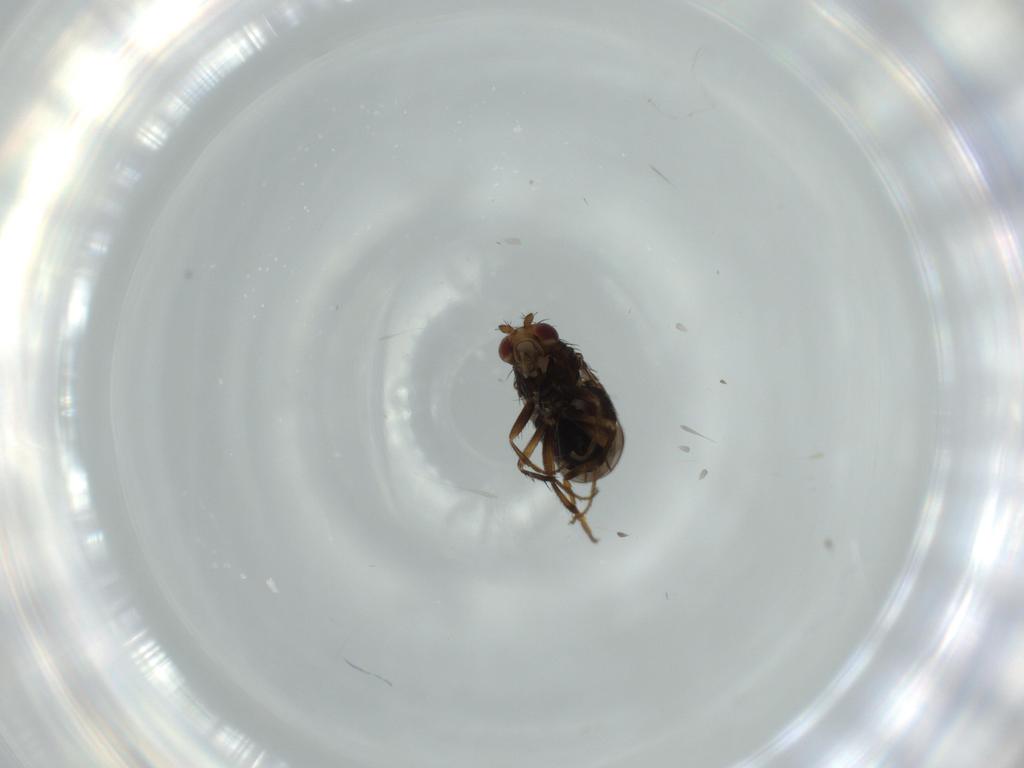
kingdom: Animalia
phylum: Arthropoda
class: Insecta
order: Diptera
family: Sphaeroceridae
